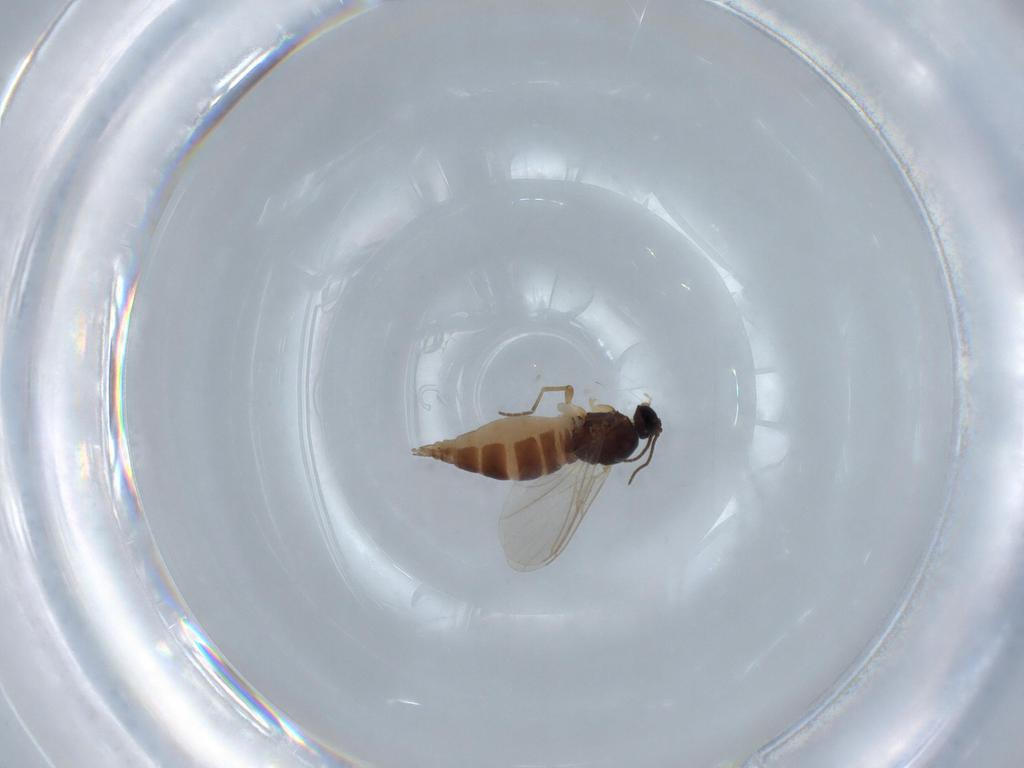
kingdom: Animalia
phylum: Arthropoda
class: Insecta
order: Diptera
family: Sciaridae
